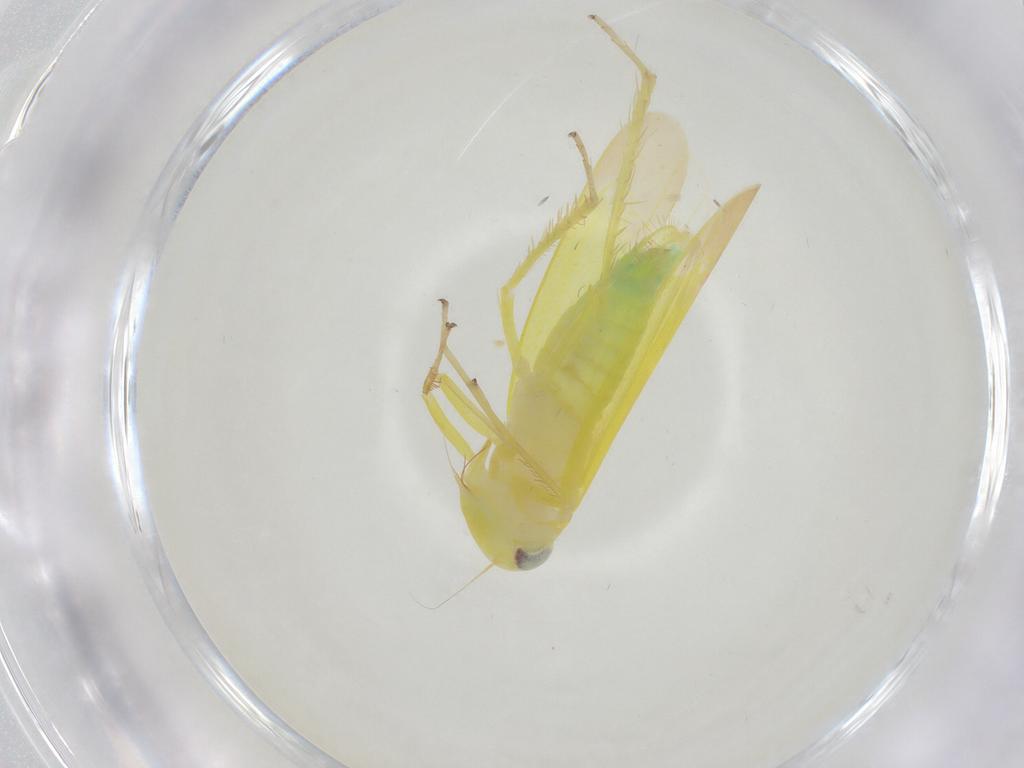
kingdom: Animalia
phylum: Arthropoda
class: Insecta
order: Hemiptera
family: Cicadellidae
